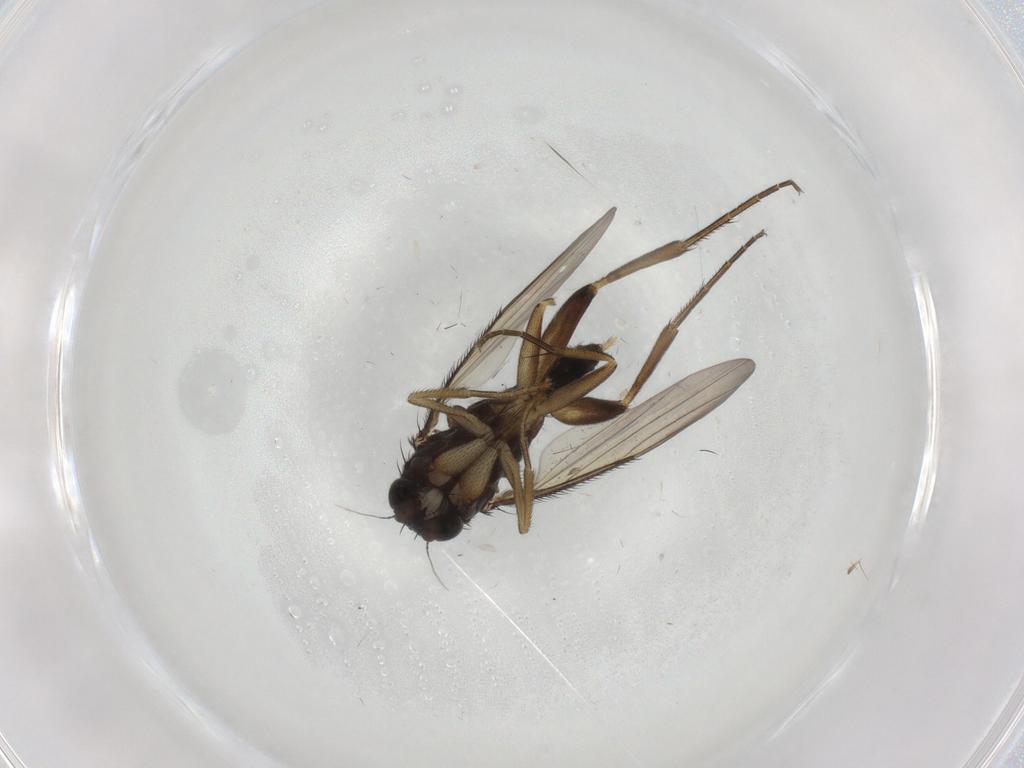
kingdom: Animalia
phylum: Arthropoda
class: Insecta
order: Diptera
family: Phoridae
